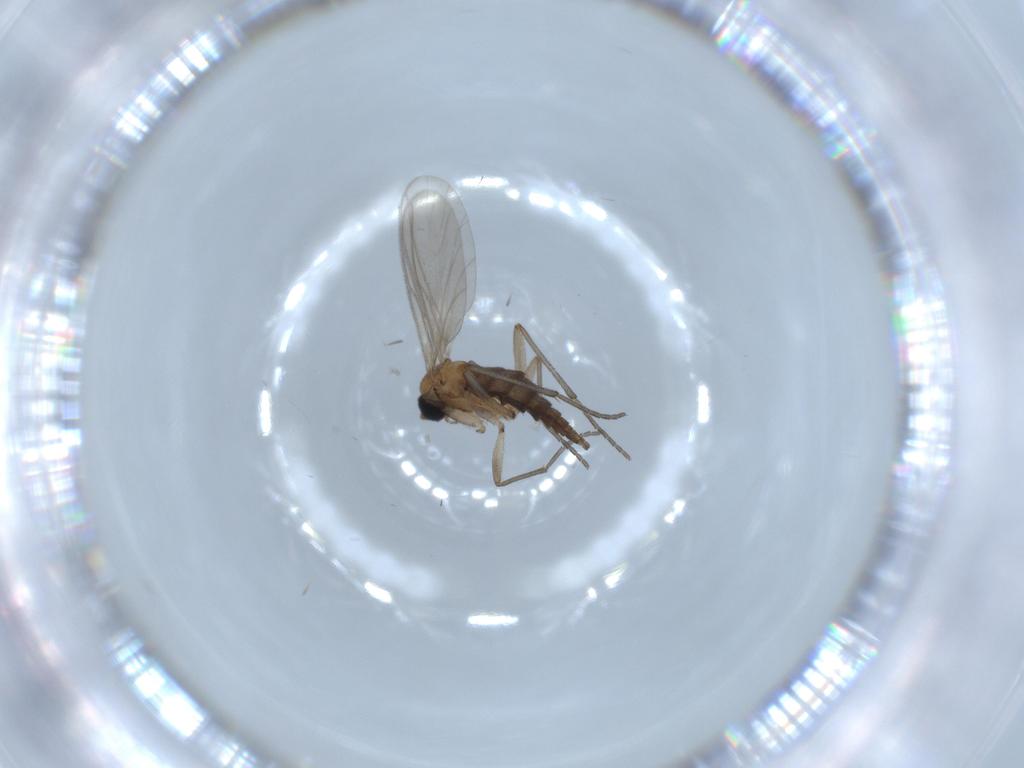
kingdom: Animalia
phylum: Arthropoda
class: Insecta
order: Diptera
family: Sciaridae
